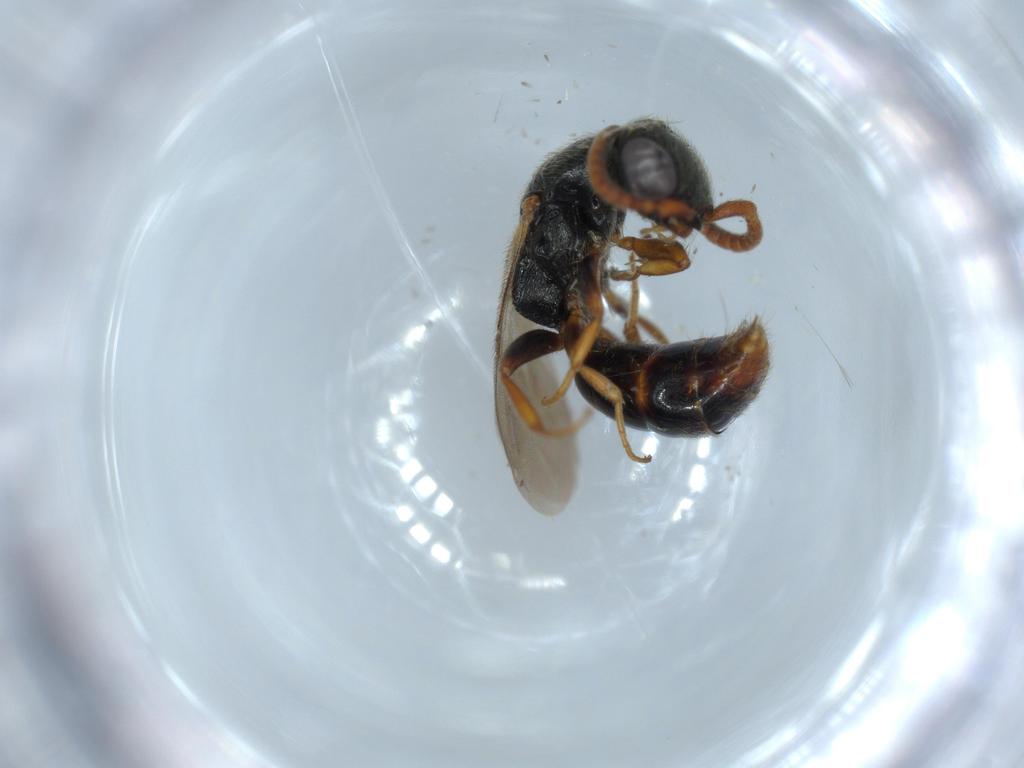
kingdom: Animalia
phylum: Arthropoda
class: Insecta
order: Hymenoptera
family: Bethylidae
